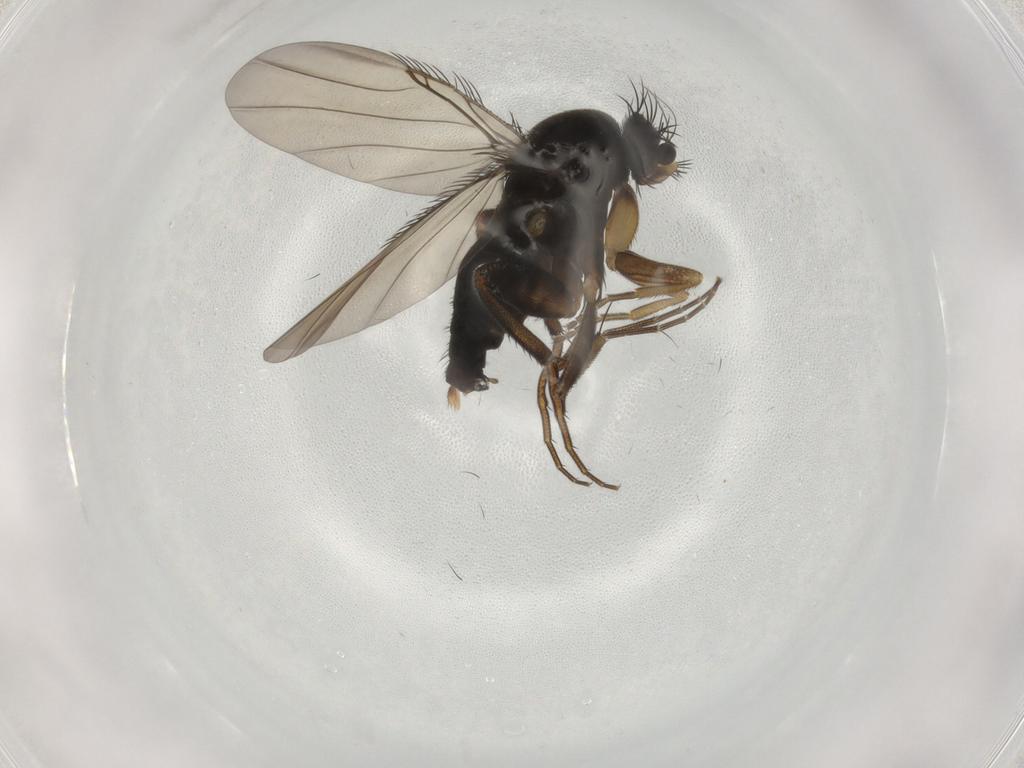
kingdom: Animalia
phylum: Arthropoda
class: Insecta
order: Diptera
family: Phoridae
